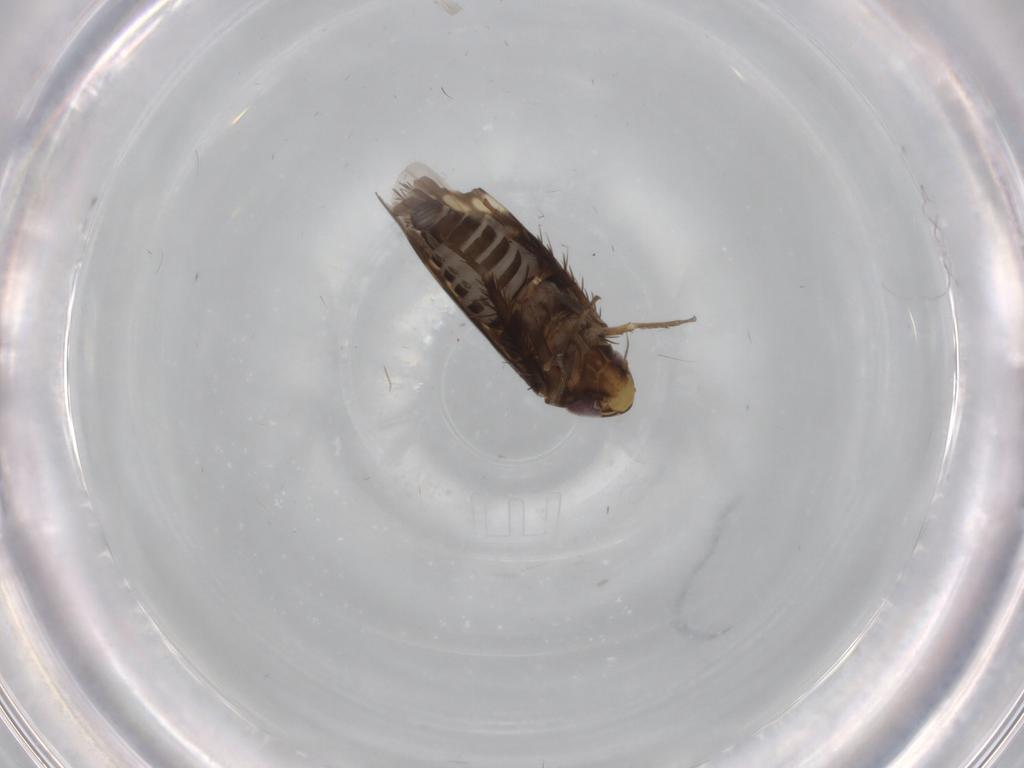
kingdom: Animalia
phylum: Arthropoda
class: Insecta
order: Hemiptera
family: Cicadellidae
